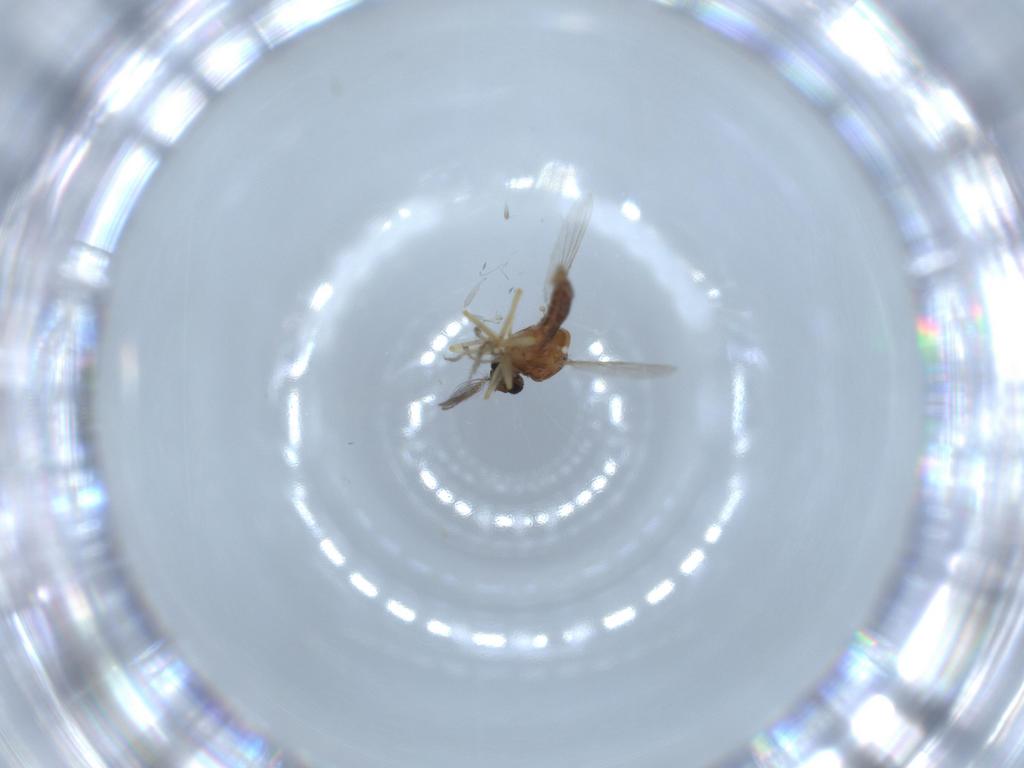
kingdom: Animalia
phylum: Arthropoda
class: Insecta
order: Diptera
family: Ceratopogonidae
